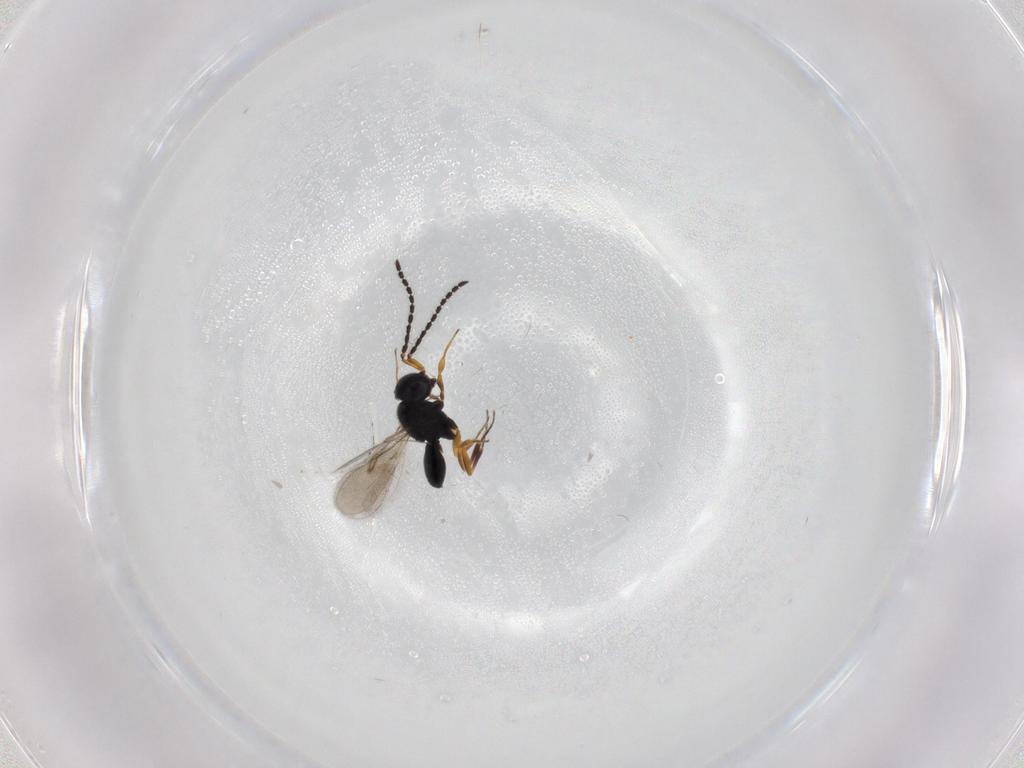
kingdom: Animalia
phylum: Arthropoda
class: Insecta
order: Hymenoptera
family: Scelionidae
